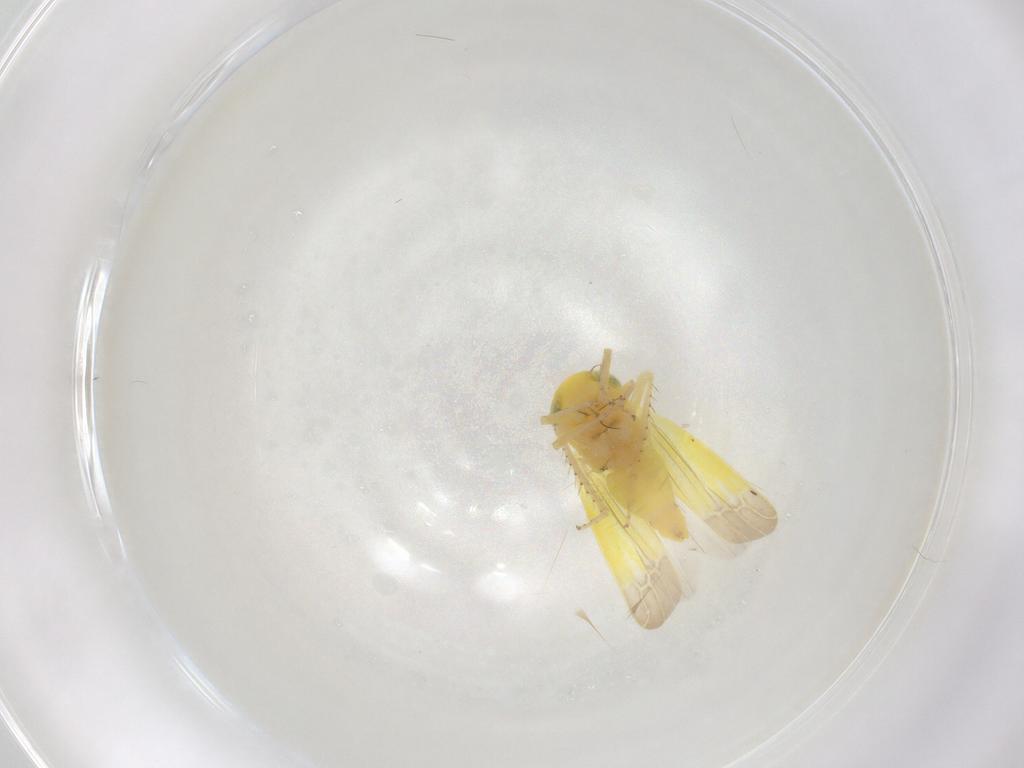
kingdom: Animalia
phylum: Arthropoda
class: Insecta
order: Hemiptera
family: Cicadellidae
